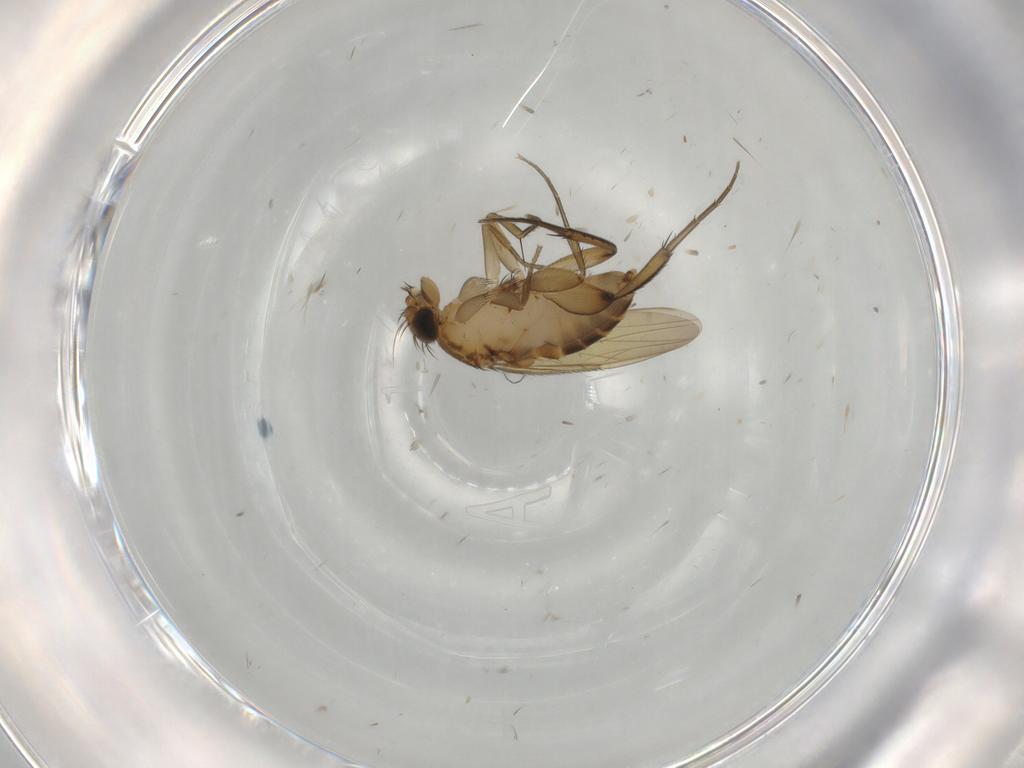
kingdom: Animalia
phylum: Arthropoda
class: Insecta
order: Diptera
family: Phoridae
